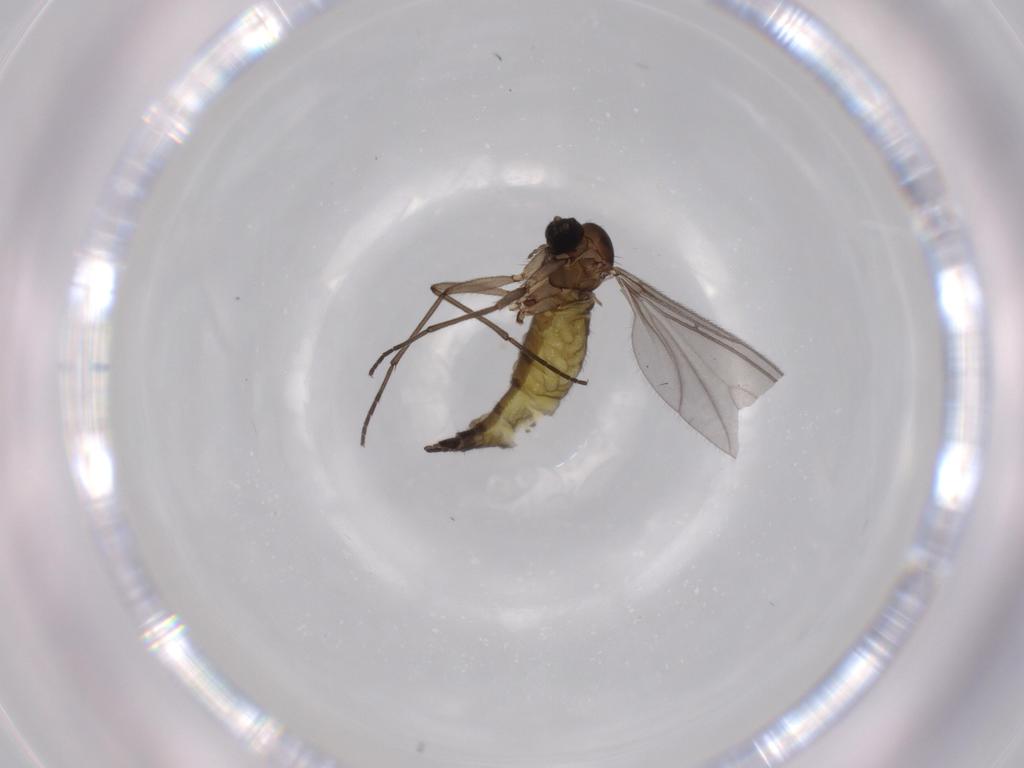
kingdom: Animalia
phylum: Arthropoda
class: Insecta
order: Diptera
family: Sciaridae
